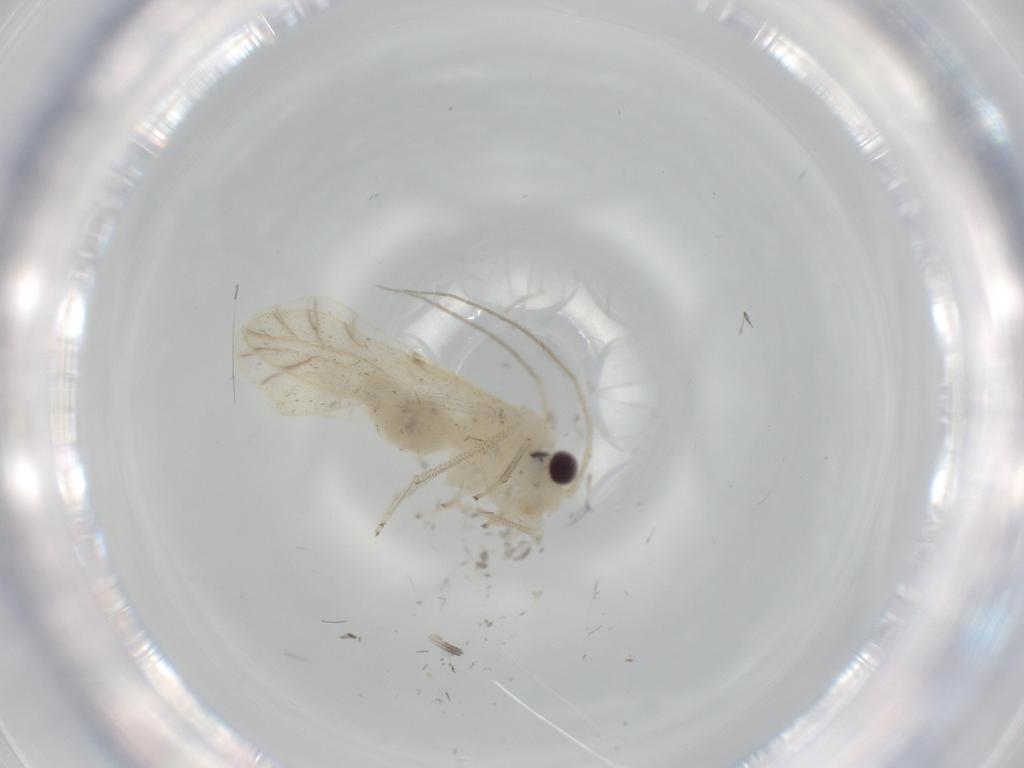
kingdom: Animalia
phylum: Arthropoda
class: Insecta
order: Psocodea
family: Caeciliusidae
